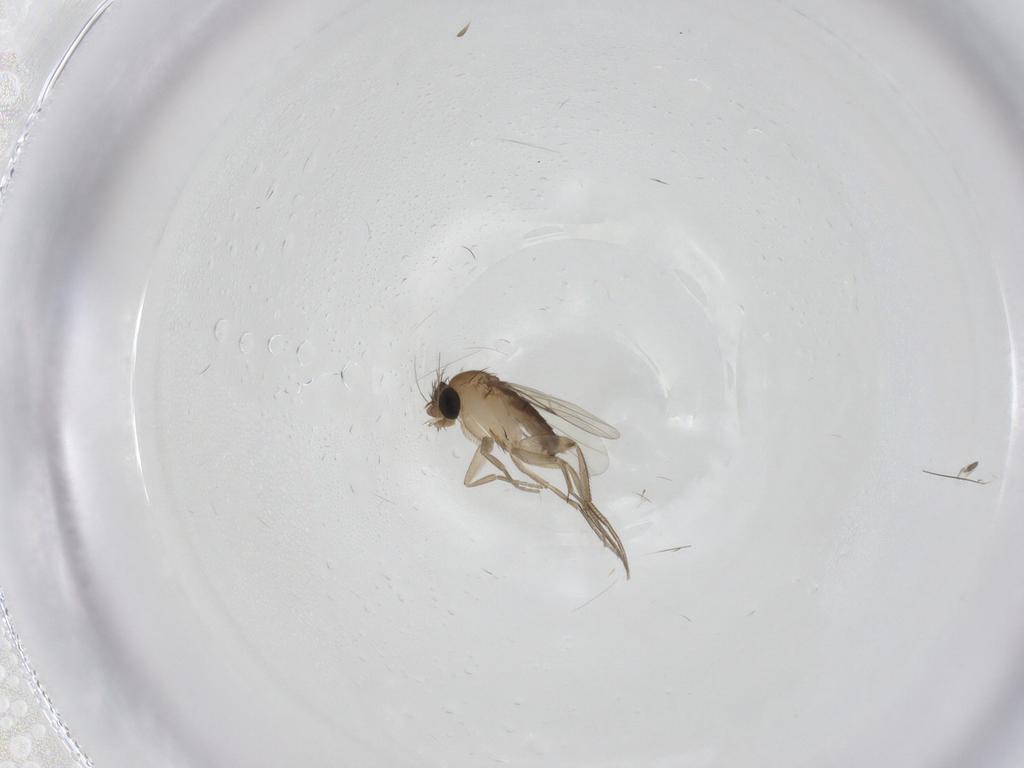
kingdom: Animalia
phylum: Arthropoda
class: Insecta
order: Diptera
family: Phoridae
